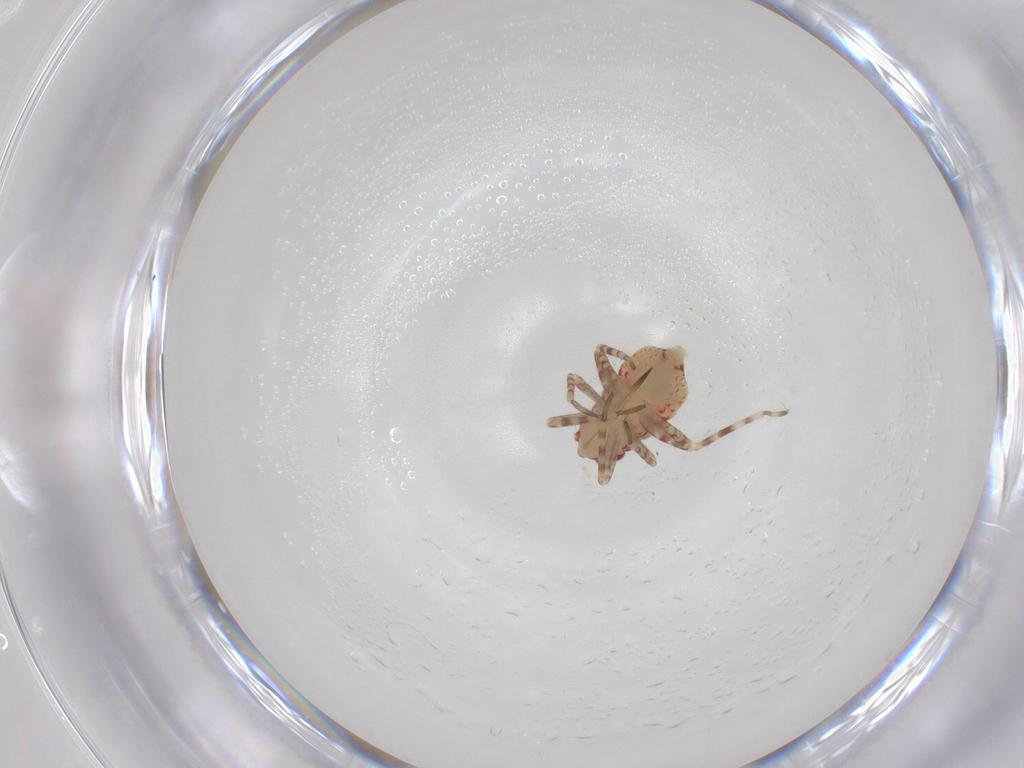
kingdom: Animalia
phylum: Arthropoda
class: Insecta
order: Hemiptera
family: Miridae
